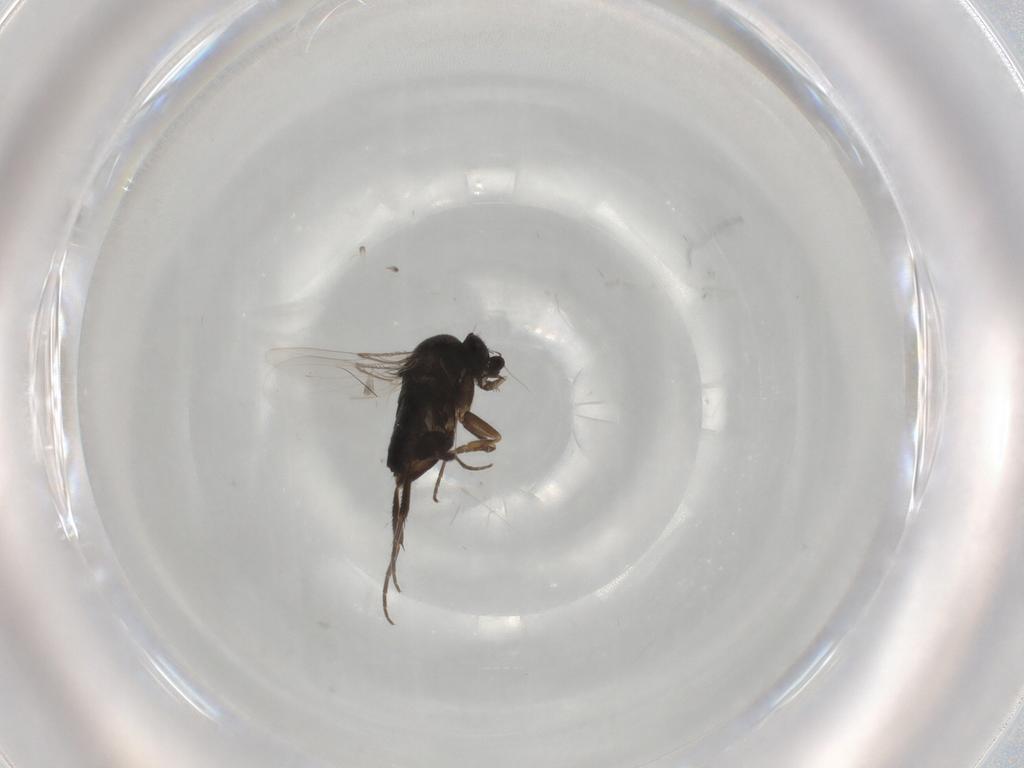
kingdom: Animalia
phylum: Arthropoda
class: Insecta
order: Diptera
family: Phoridae
